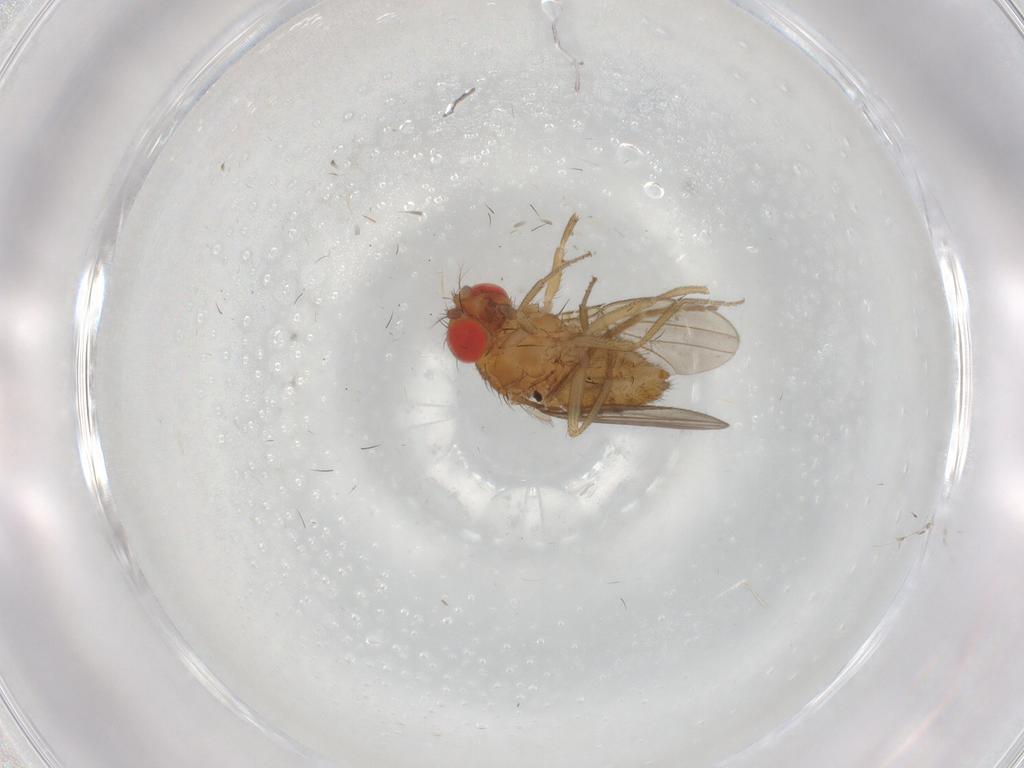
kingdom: Animalia
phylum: Arthropoda
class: Insecta
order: Diptera
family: Drosophilidae
